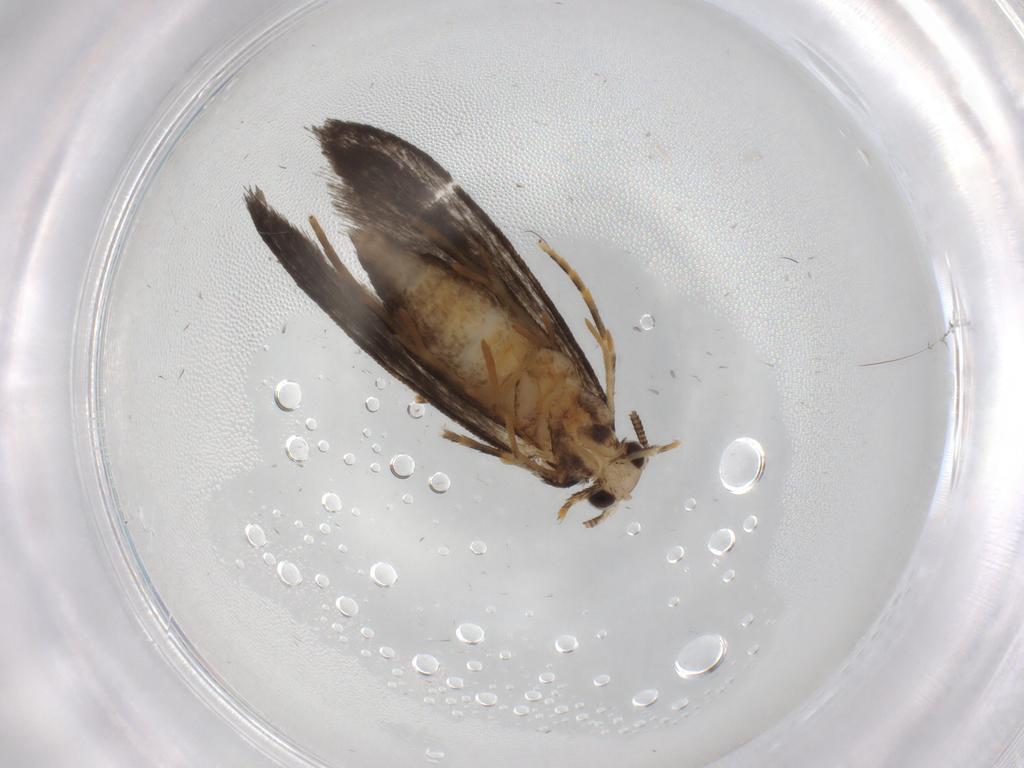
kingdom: Animalia
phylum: Arthropoda
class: Insecta
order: Lepidoptera
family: Tineidae
